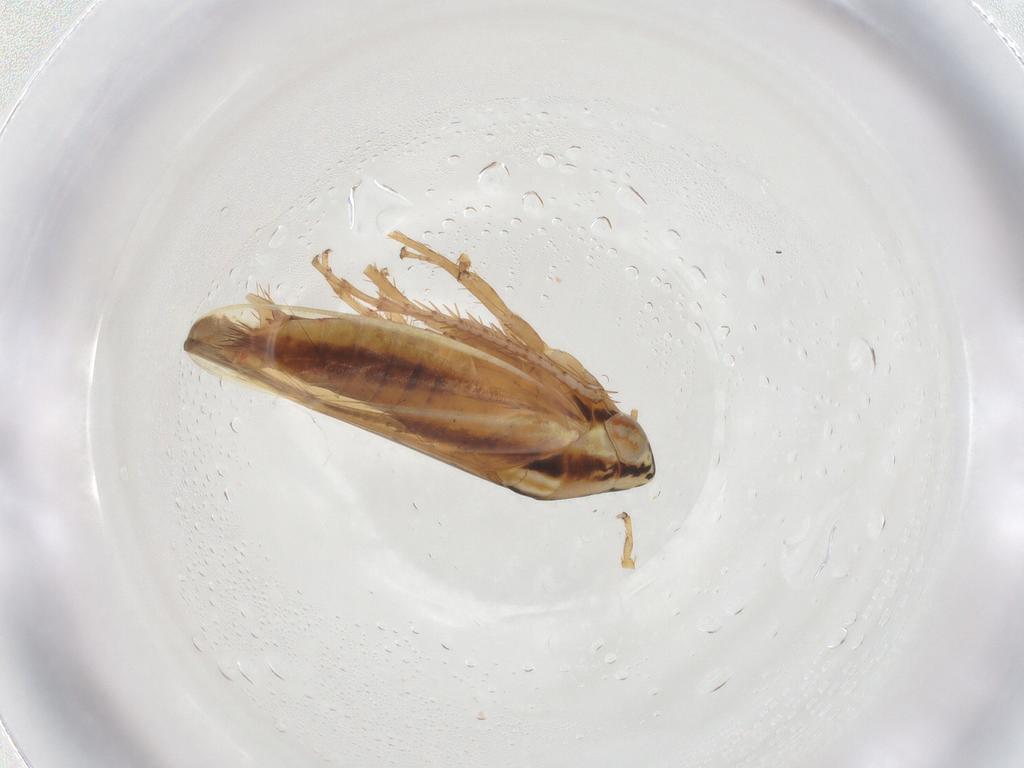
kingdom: Animalia
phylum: Arthropoda
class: Insecta
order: Hemiptera
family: Cicadellidae
